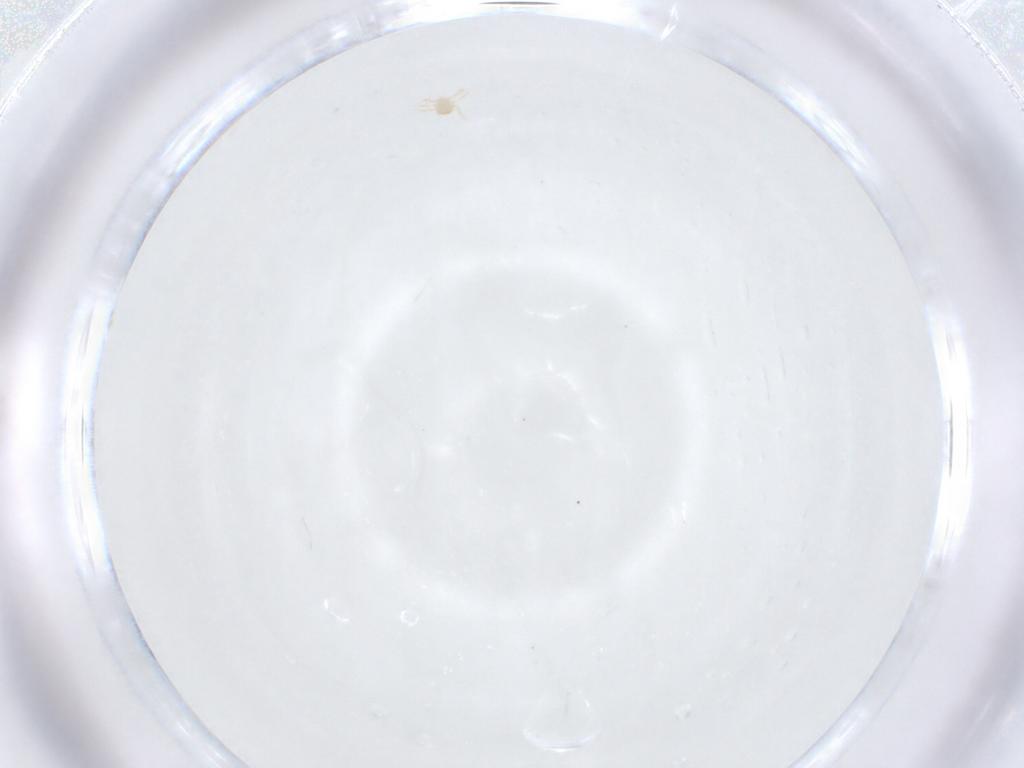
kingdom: Animalia
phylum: Arthropoda
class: Arachnida
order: Trombidiformes
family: Microtrombidiidae
